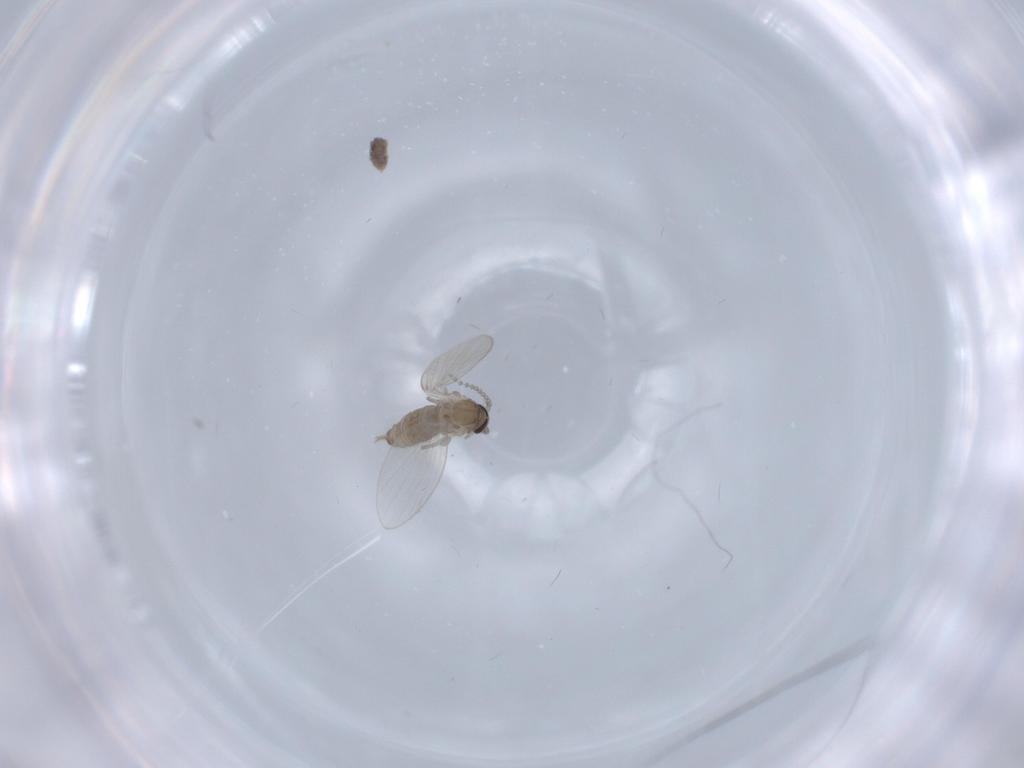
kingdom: Animalia
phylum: Arthropoda
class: Insecta
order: Diptera
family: Psychodidae
